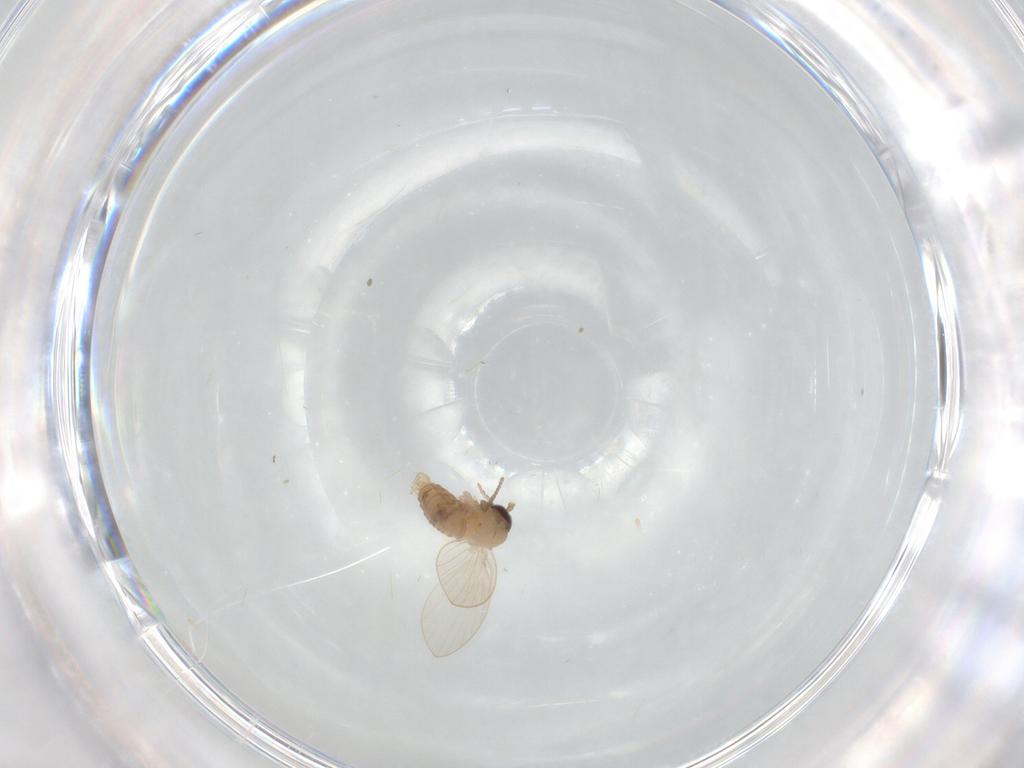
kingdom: Animalia
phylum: Arthropoda
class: Insecta
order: Diptera
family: Psychodidae
